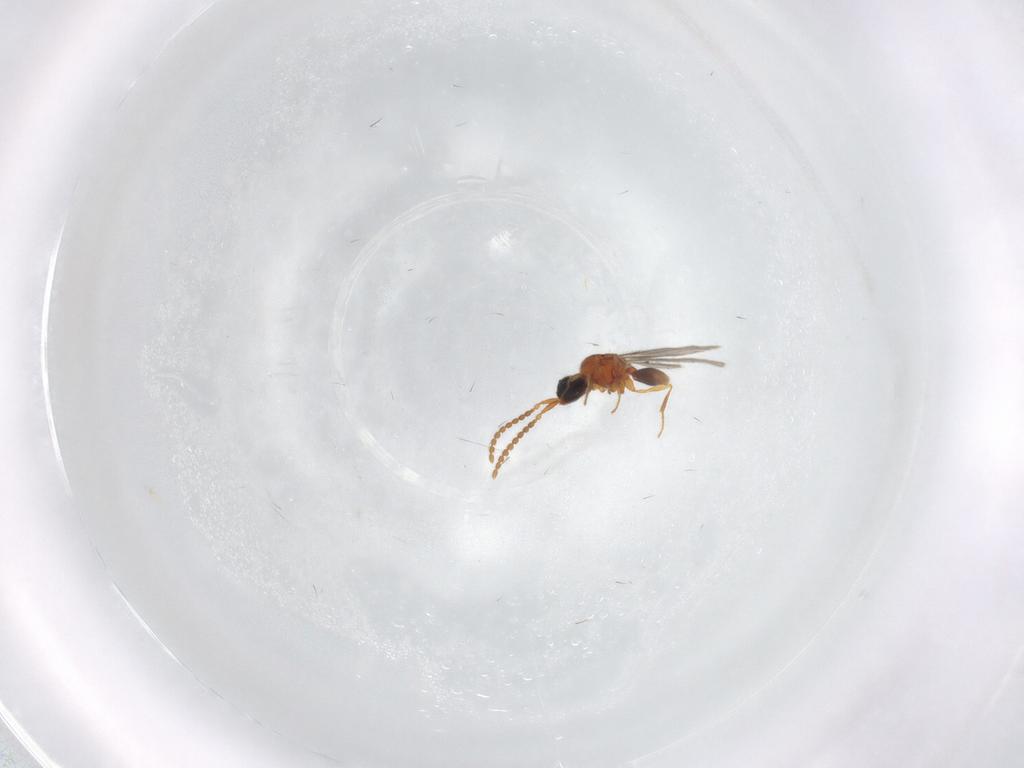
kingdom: Animalia
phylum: Arthropoda
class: Insecta
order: Hymenoptera
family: Diapriidae
